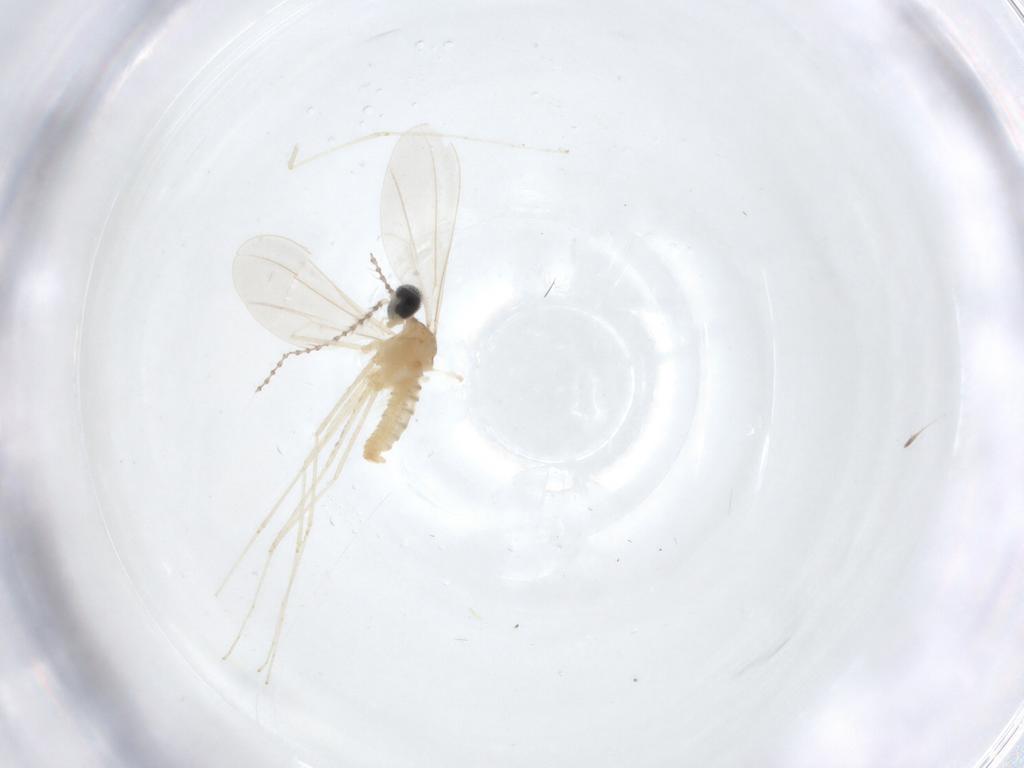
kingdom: Animalia
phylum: Arthropoda
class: Insecta
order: Diptera
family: Cecidomyiidae
